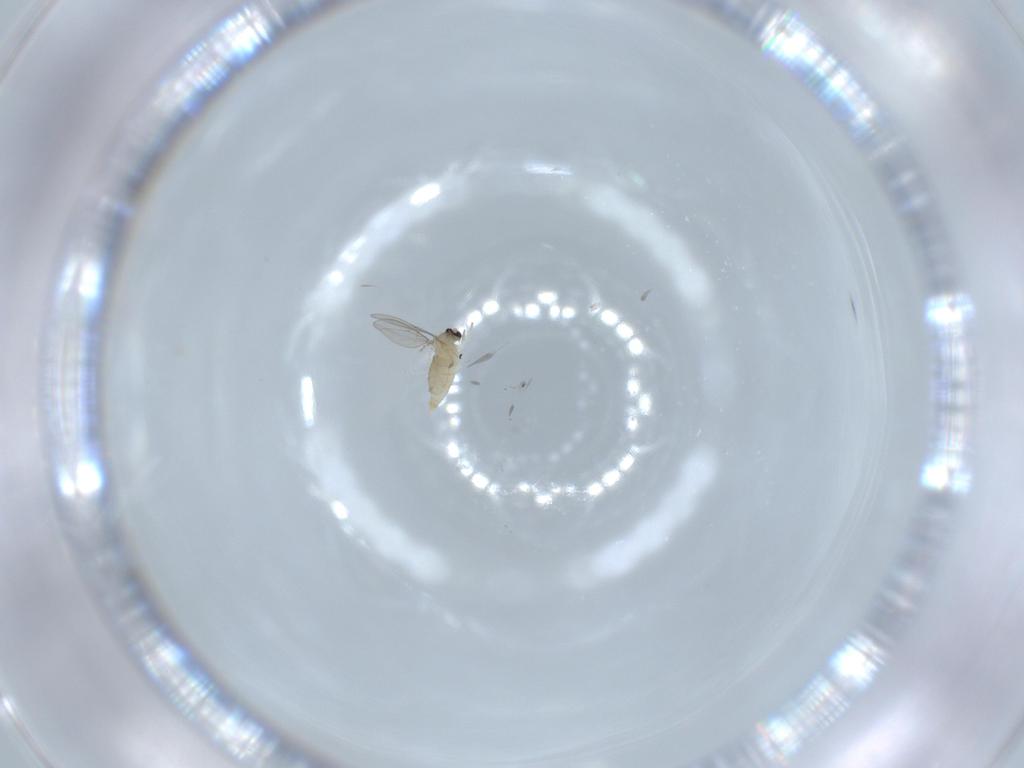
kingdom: Animalia
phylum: Arthropoda
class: Insecta
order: Diptera
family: Cecidomyiidae
